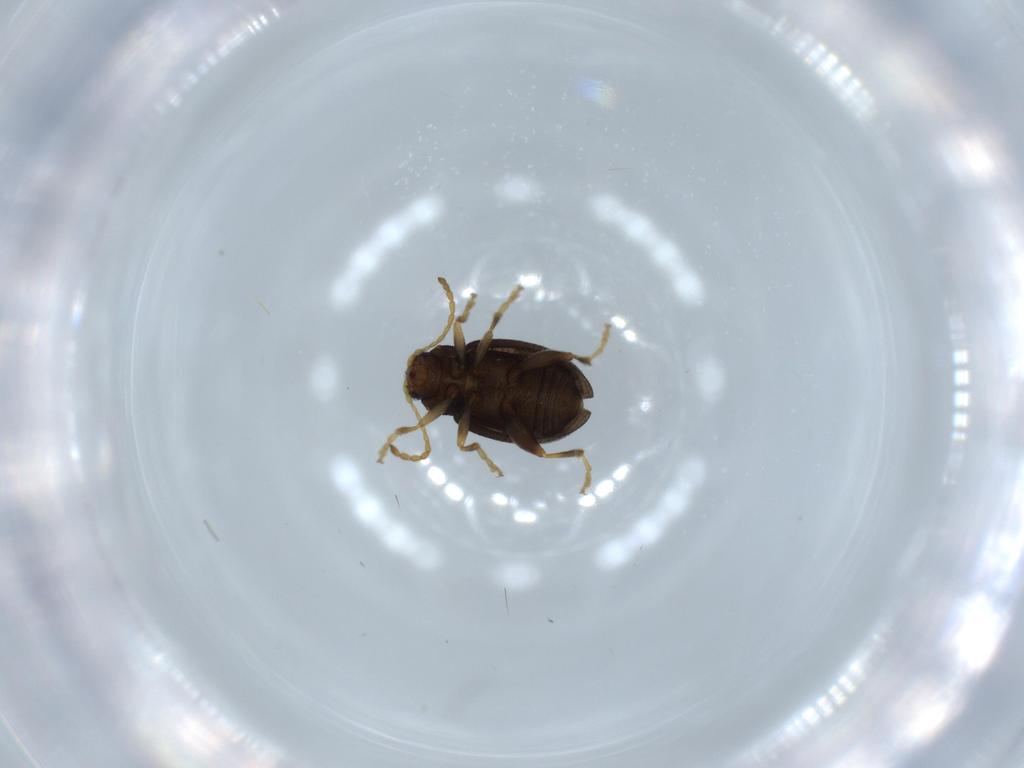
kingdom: Animalia
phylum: Arthropoda
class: Insecta
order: Coleoptera
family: Chrysomelidae
